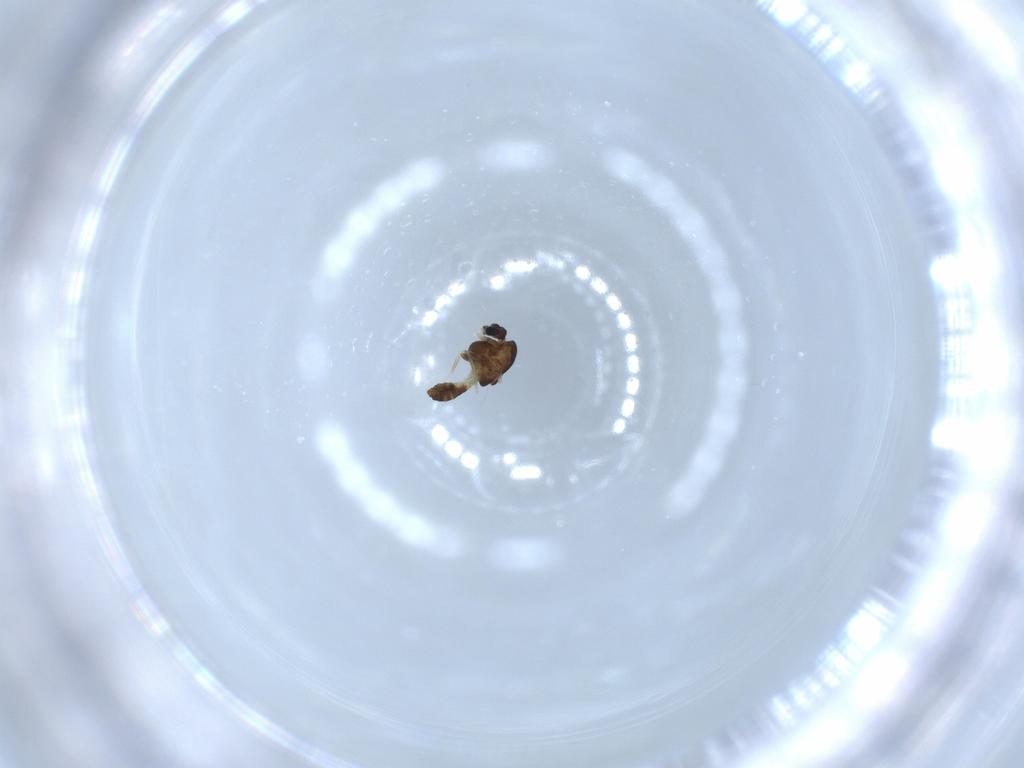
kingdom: Animalia
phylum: Arthropoda
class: Insecta
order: Diptera
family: Chironomidae
